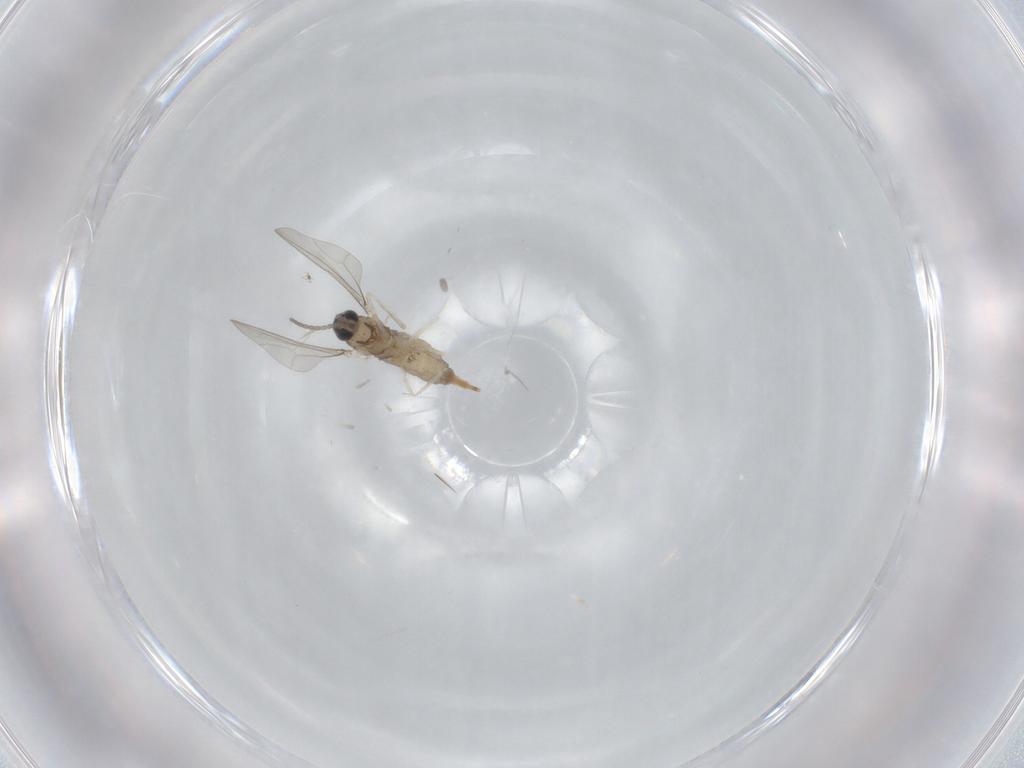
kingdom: Animalia
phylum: Arthropoda
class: Insecta
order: Diptera
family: Cecidomyiidae
